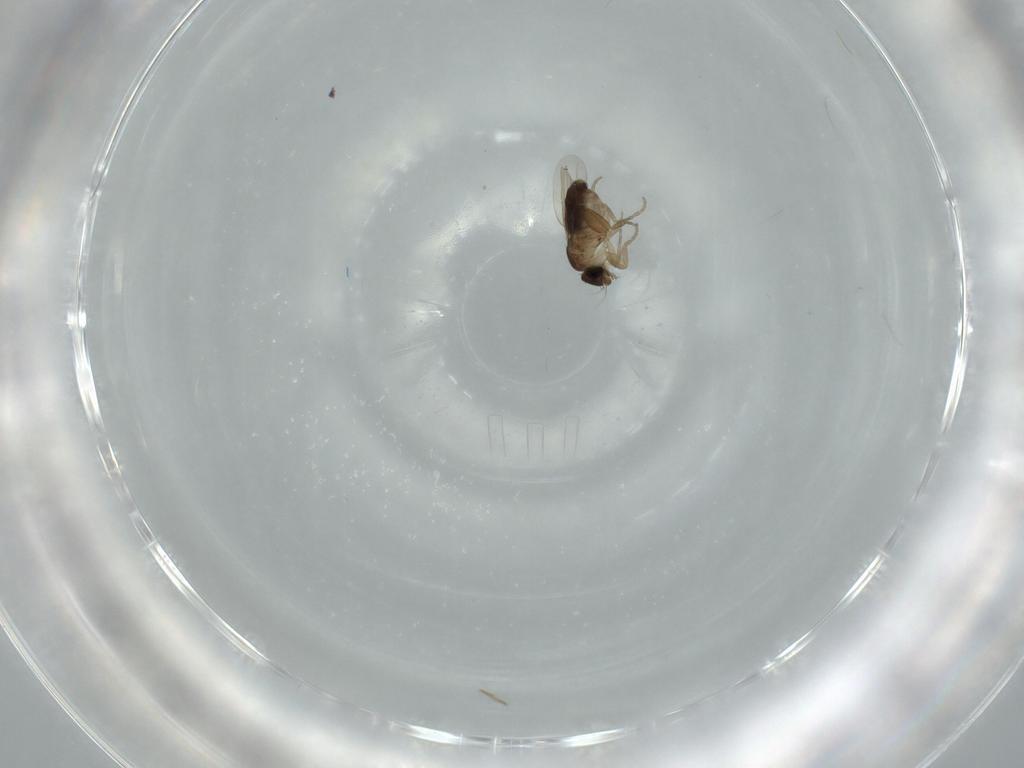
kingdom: Animalia
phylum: Arthropoda
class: Insecta
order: Diptera
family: Phoridae
